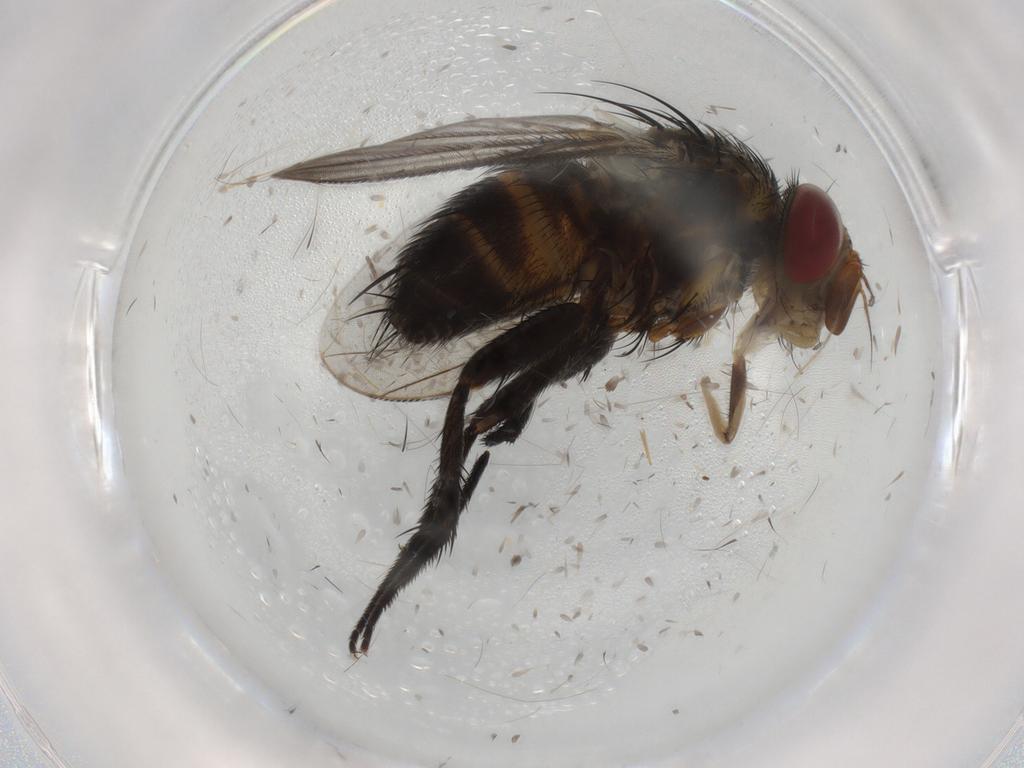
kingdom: Animalia
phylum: Arthropoda
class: Insecta
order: Diptera
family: Tachinidae
